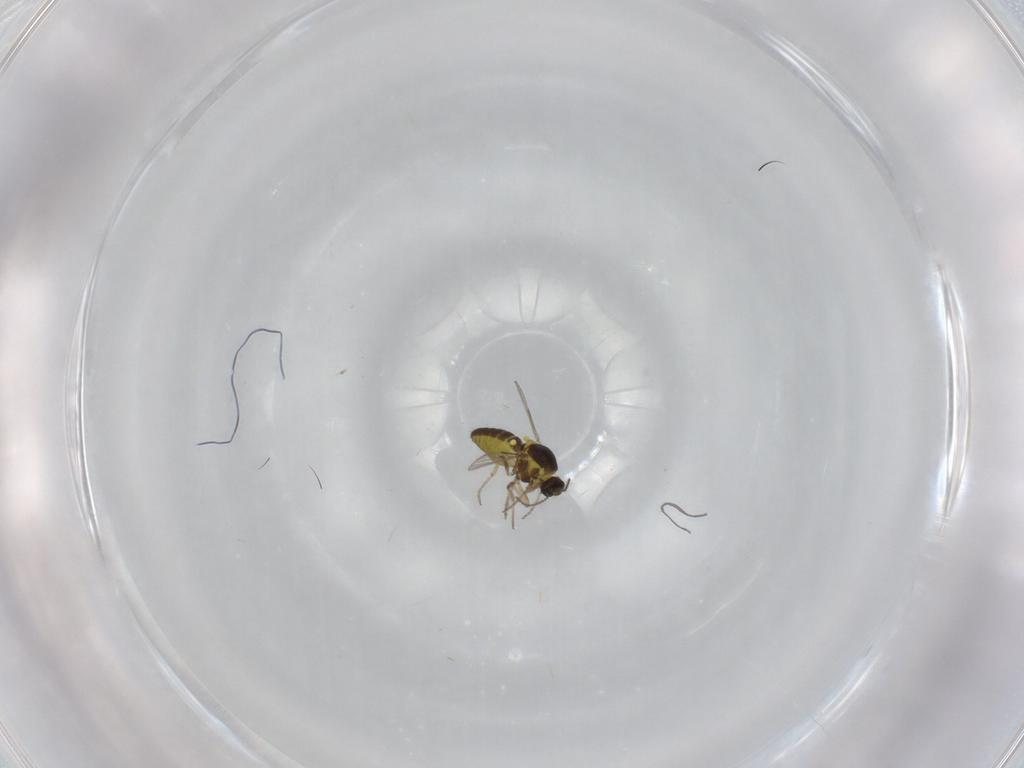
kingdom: Animalia
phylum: Arthropoda
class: Insecta
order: Diptera
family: Ceratopogonidae
